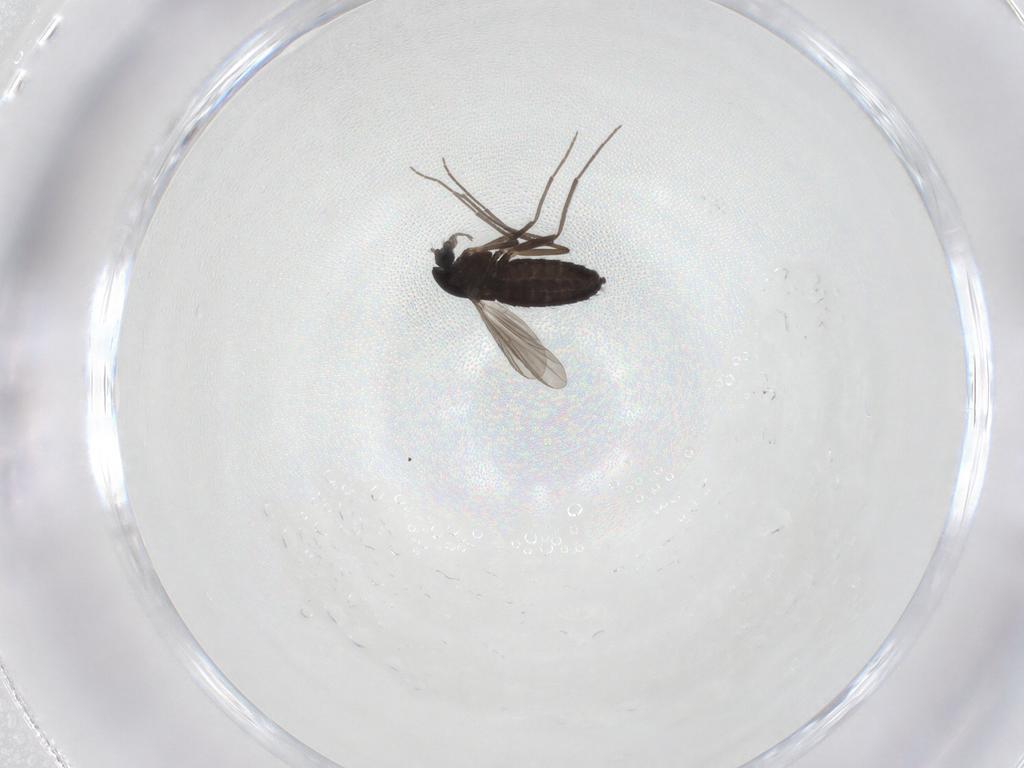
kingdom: Animalia
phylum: Arthropoda
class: Insecta
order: Diptera
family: Chironomidae
